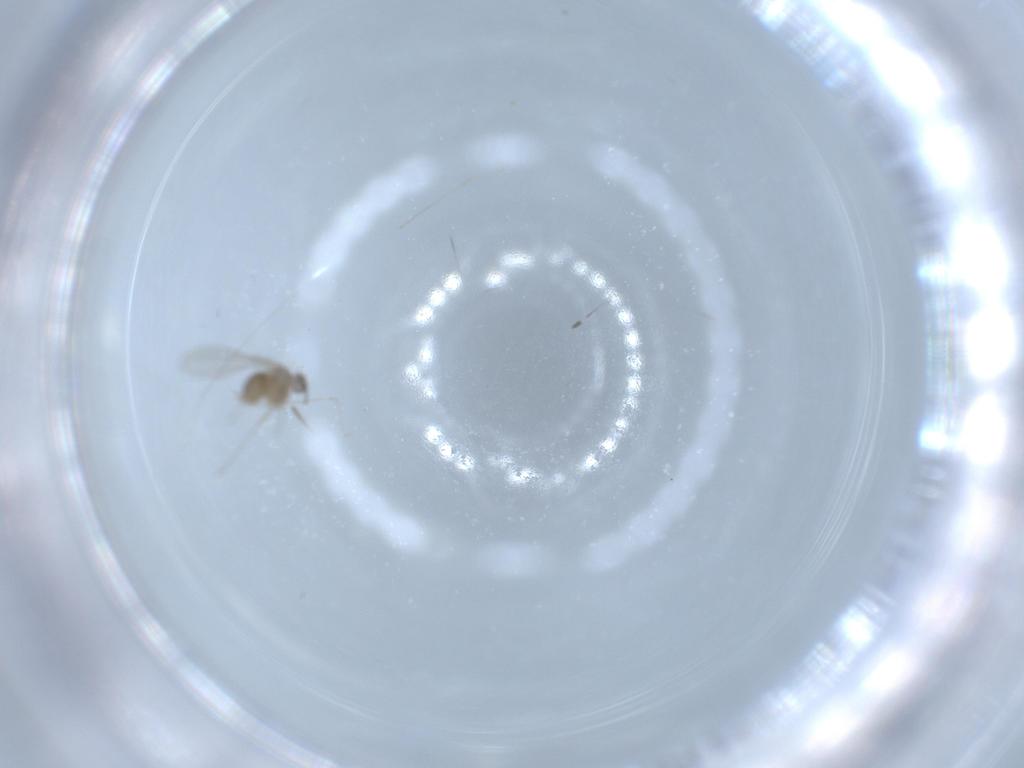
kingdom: Animalia
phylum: Arthropoda
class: Insecta
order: Diptera
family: Sciaridae
